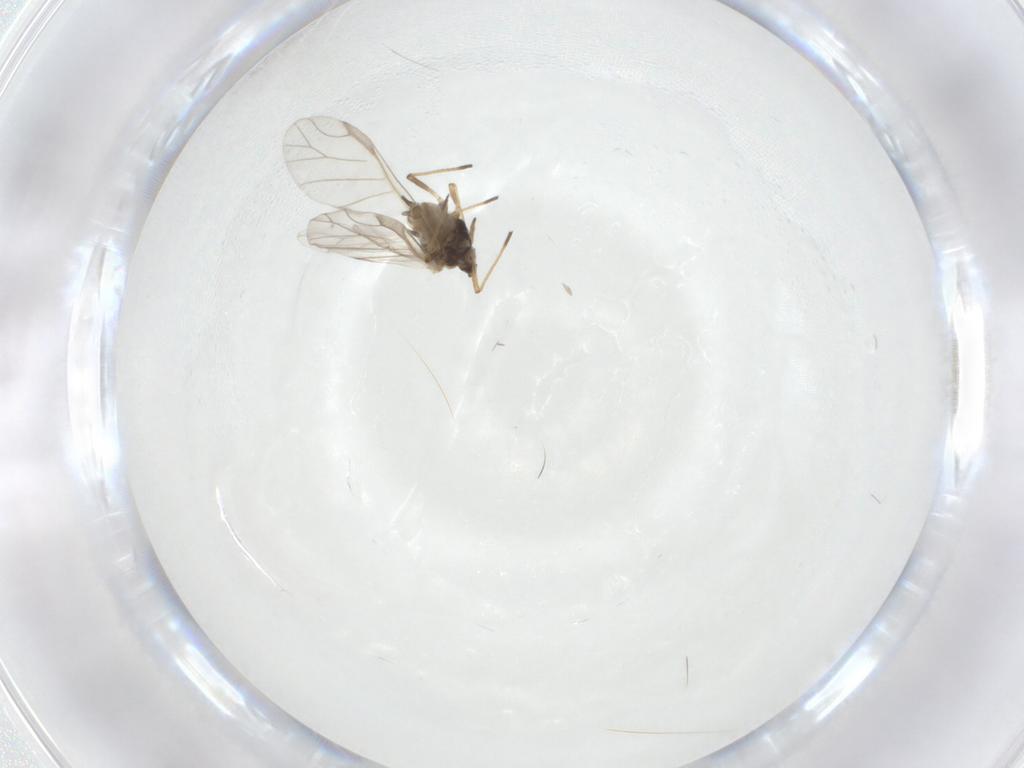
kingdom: Animalia
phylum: Arthropoda
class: Insecta
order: Hemiptera
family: Aphididae
